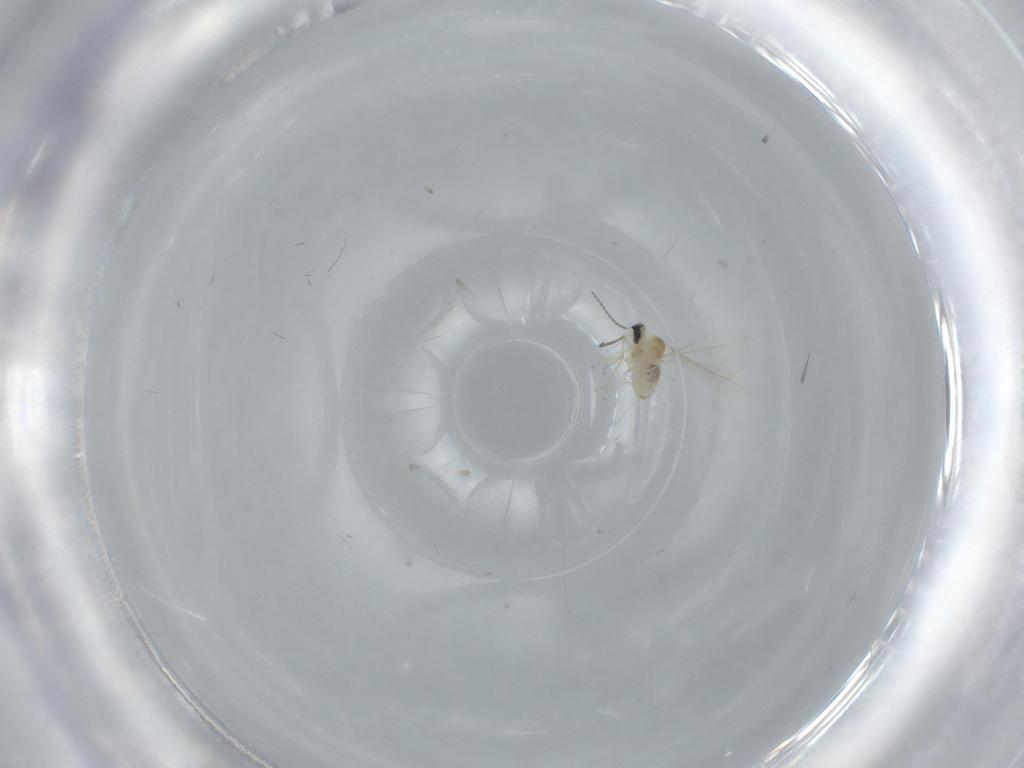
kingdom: Animalia
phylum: Arthropoda
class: Insecta
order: Diptera
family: Cecidomyiidae
